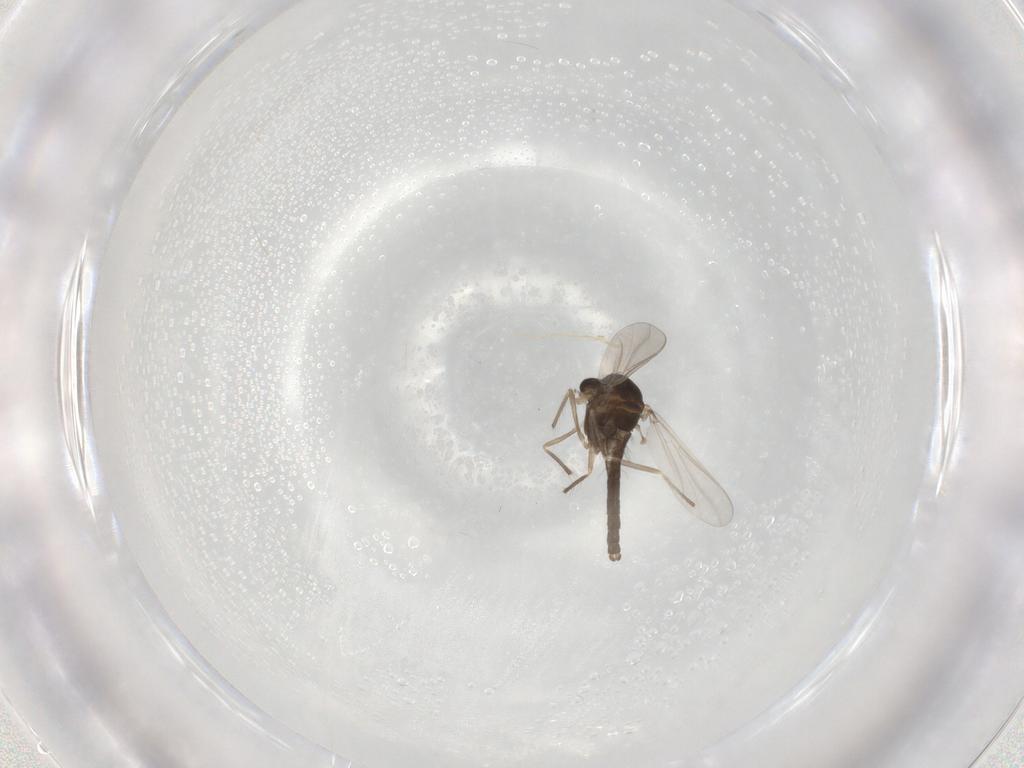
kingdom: Animalia
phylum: Arthropoda
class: Insecta
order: Diptera
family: Chironomidae
